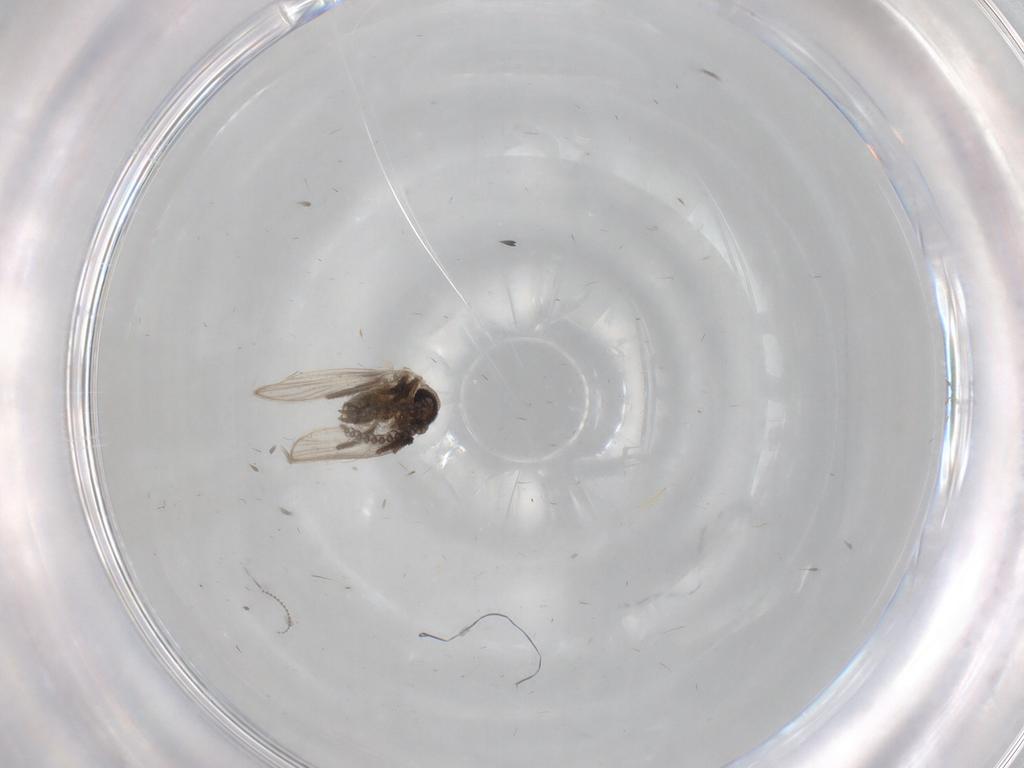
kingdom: Animalia
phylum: Arthropoda
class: Insecta
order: Diptera
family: Psychodidae
